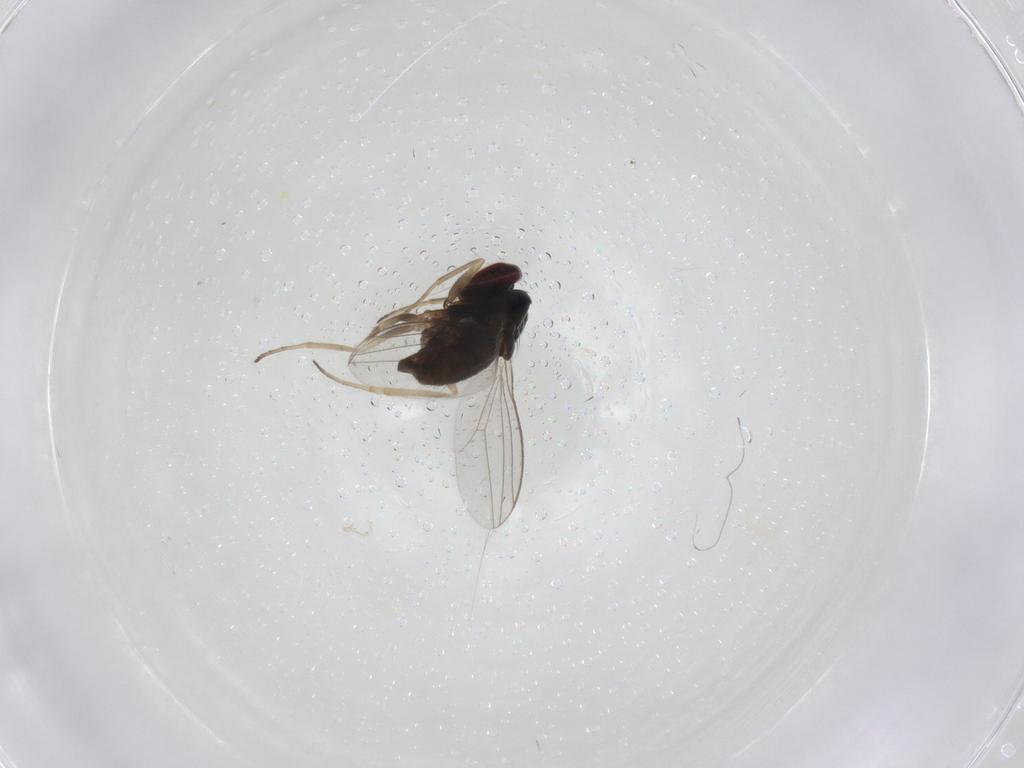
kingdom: Animalia
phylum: Arthropoda
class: Insecta
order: Diptera
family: Dolichopodidae
